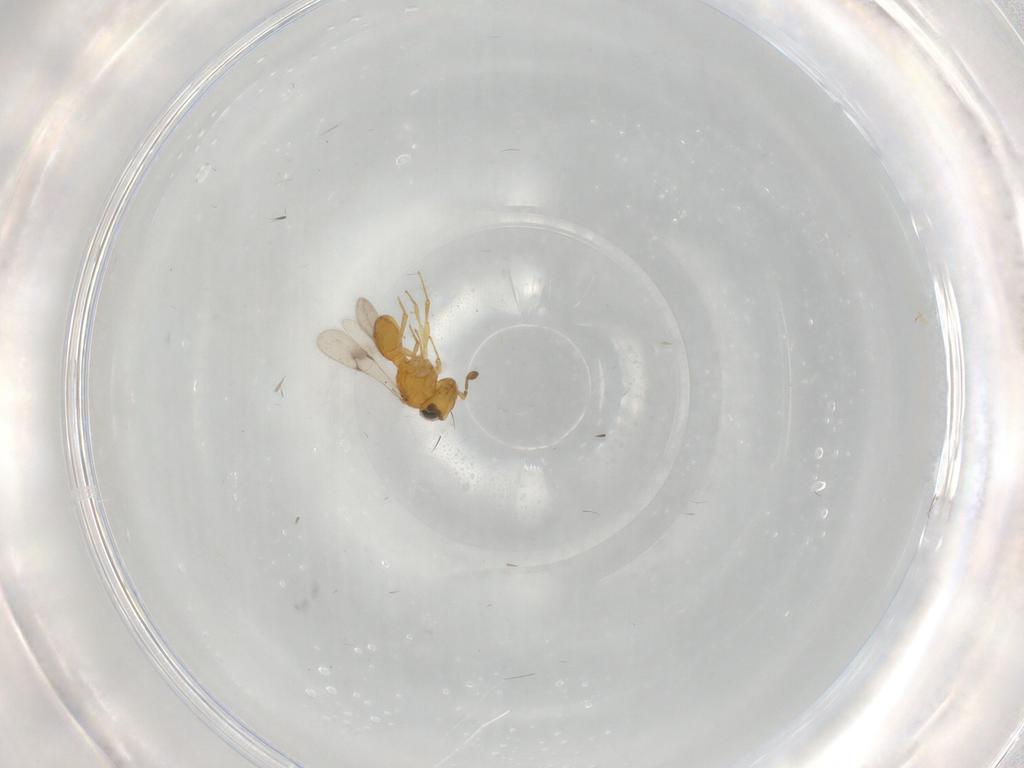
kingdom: Animalia
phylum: Arthropoda
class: Insecta
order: Hymenoptera
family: Scelionidae
